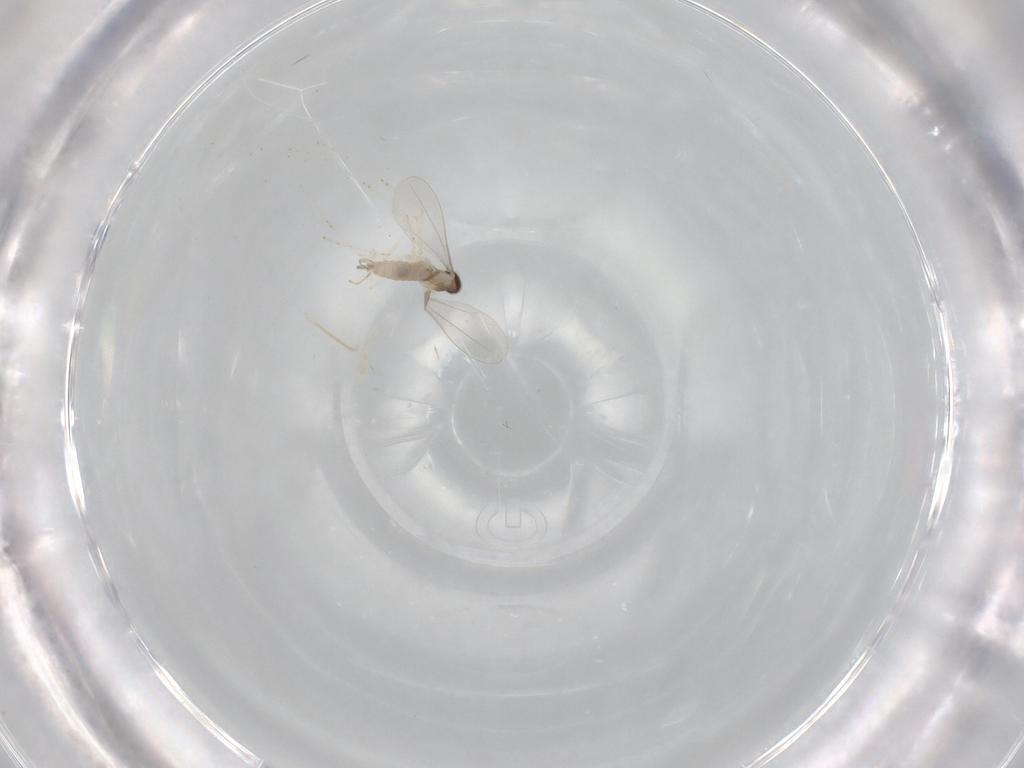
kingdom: Animalia
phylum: Arthropoda
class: Insecta
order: Diptera
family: Cecidomyiidae
